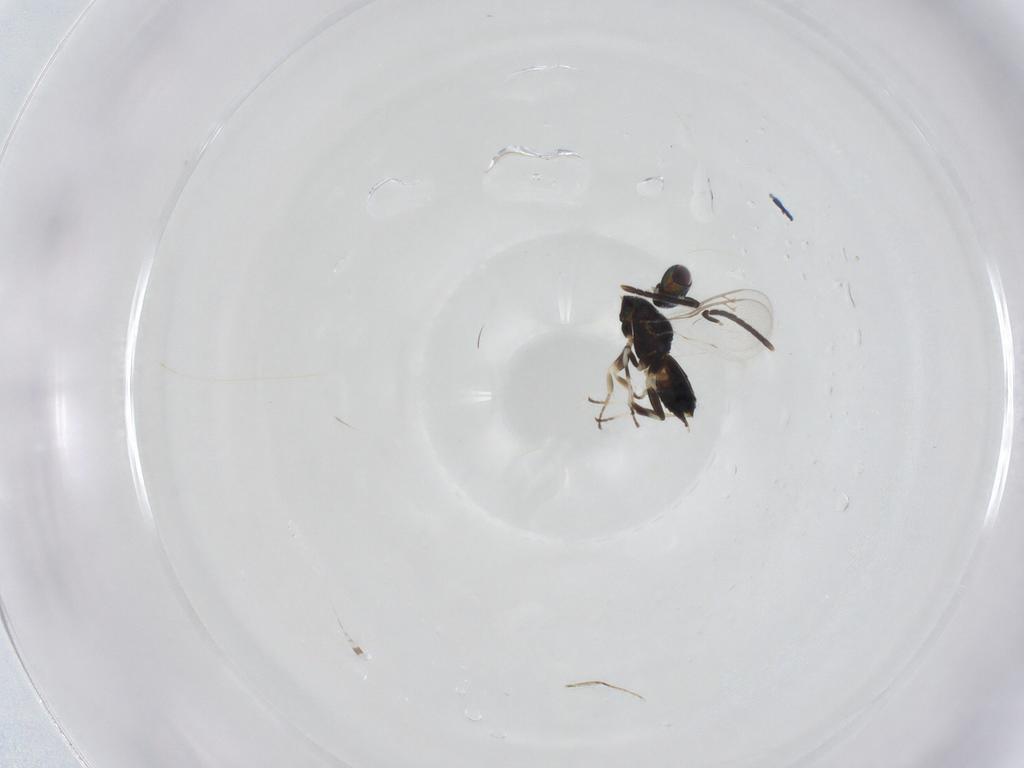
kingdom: Animalia
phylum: Arthropoda
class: Insecta
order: Hymenoptera
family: Eupelmidae
